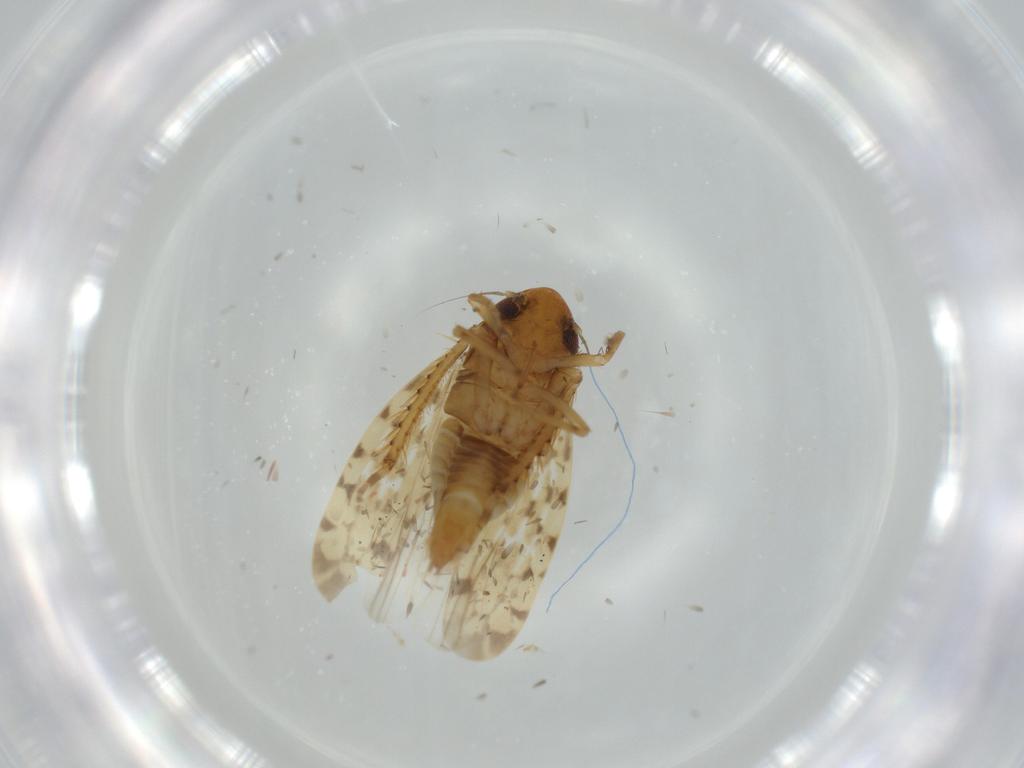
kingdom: Animalia
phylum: Arthropoda
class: Insecta
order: Hemiptera
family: Cicadellidae
